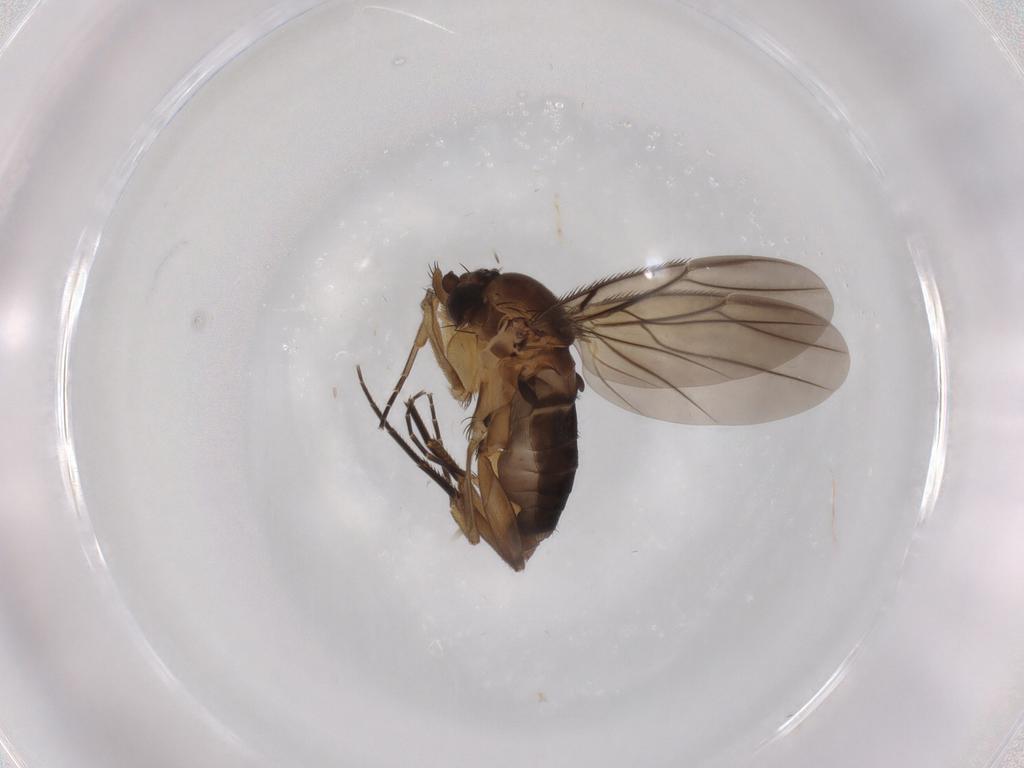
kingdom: Animalia
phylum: Arthropoda
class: Insecta
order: Diptera
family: Phoridae
